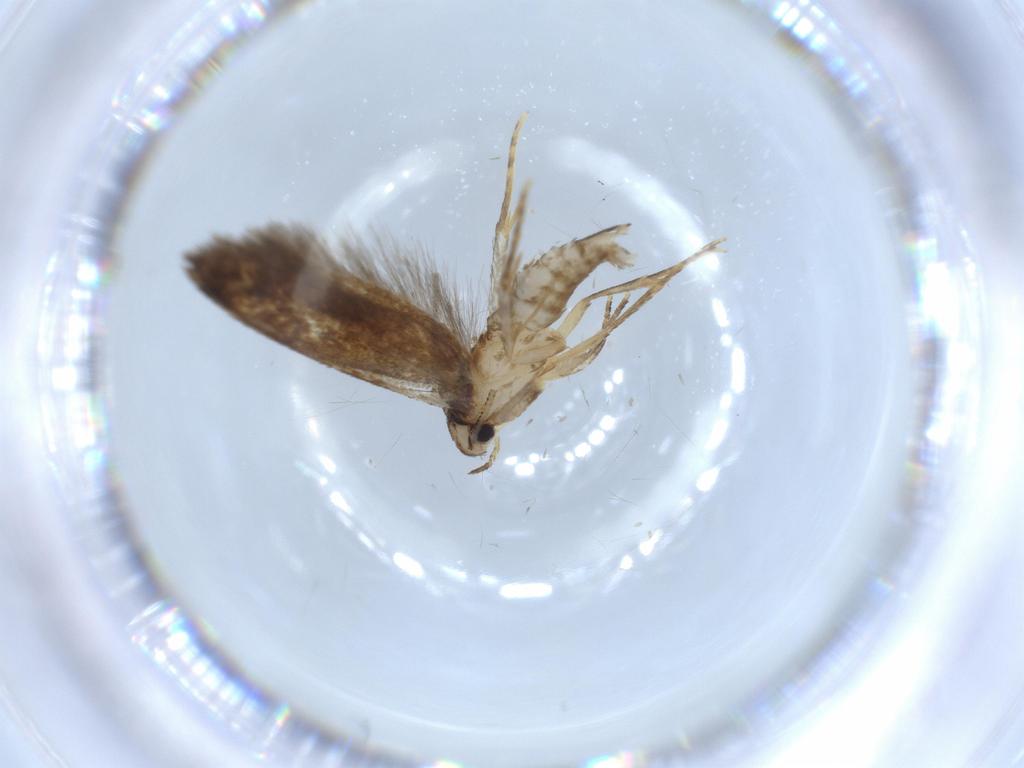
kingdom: Animalia
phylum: Arthropoda
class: Insecta
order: Lepidoptera
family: Tineidae
